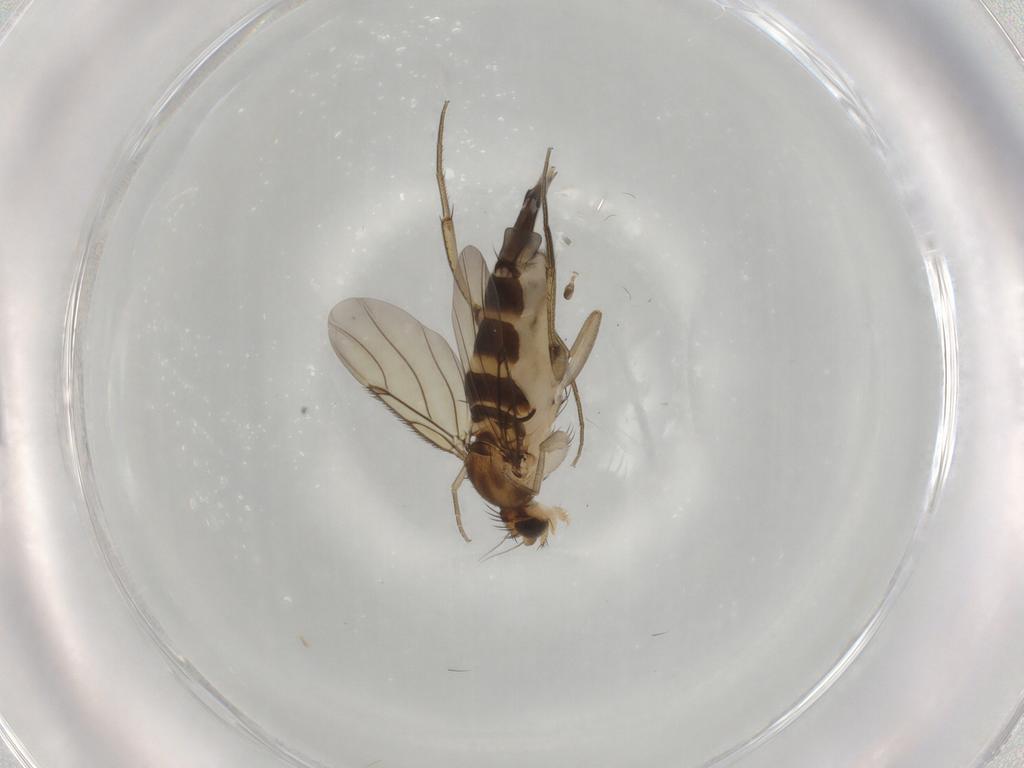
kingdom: Animalia
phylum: Arthropoda
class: Insecta
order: Diptera
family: Phoridae
